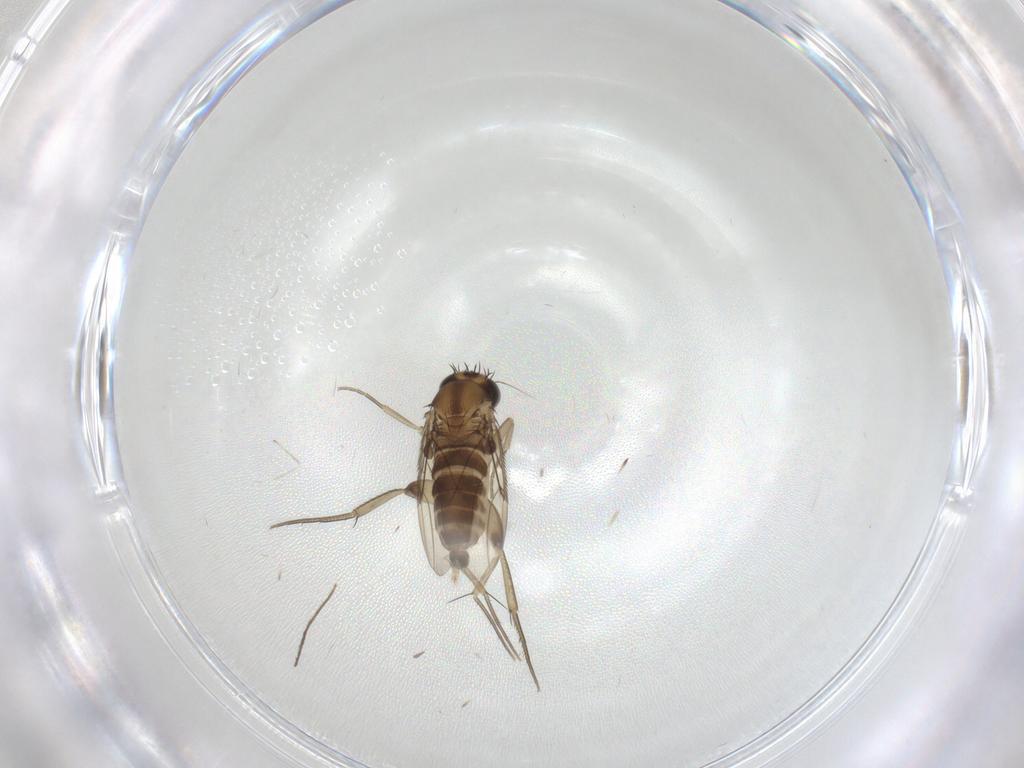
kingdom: Animalia
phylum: Arthropoda
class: Insecta
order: Diptera
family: Phoridae
